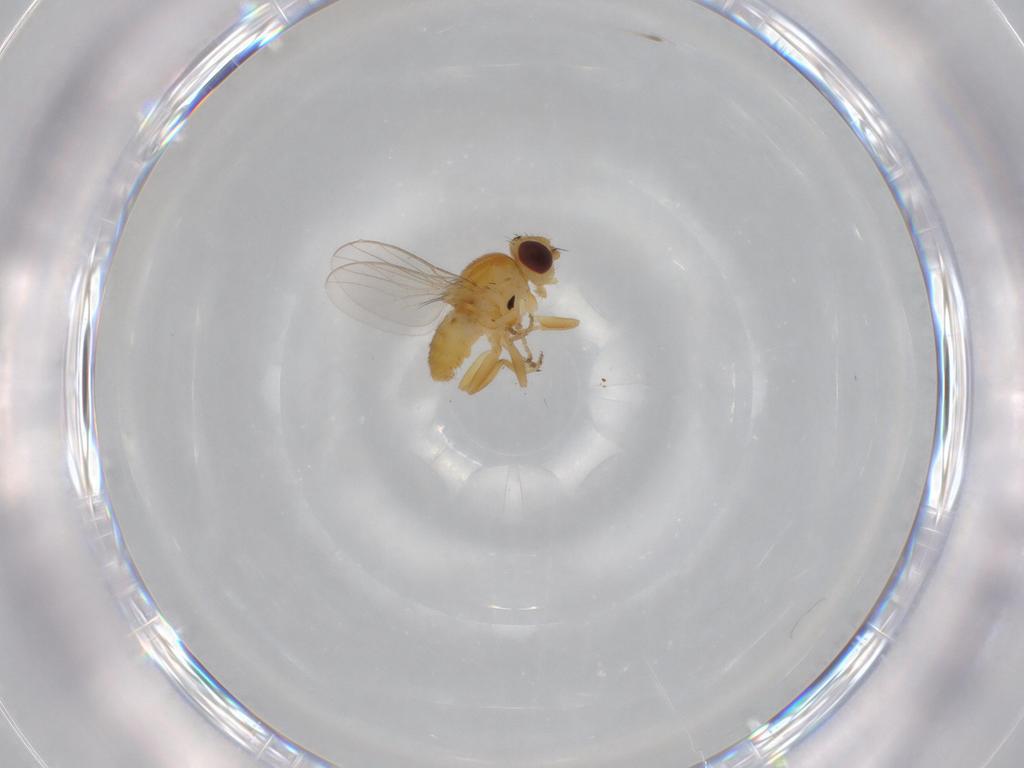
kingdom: Animalia
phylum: Arthropoda
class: Insecta
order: Diptera
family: Chloropidae
